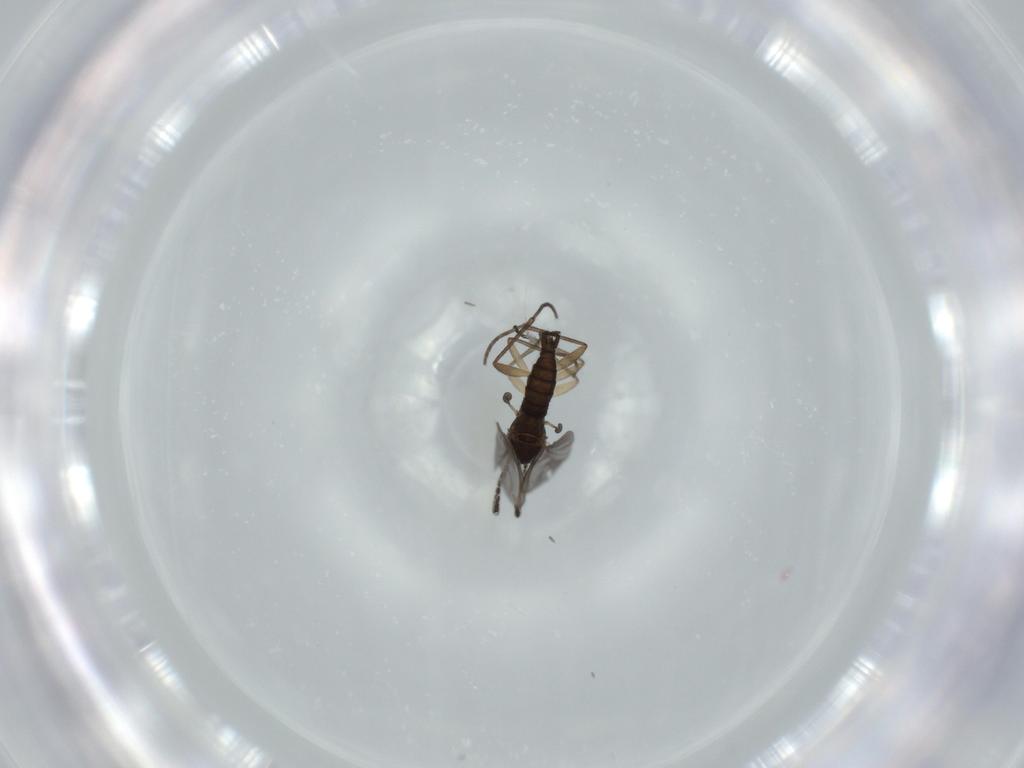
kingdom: Animalia
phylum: Arthropoda
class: Insecta
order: Diptera
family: Sciaridae
